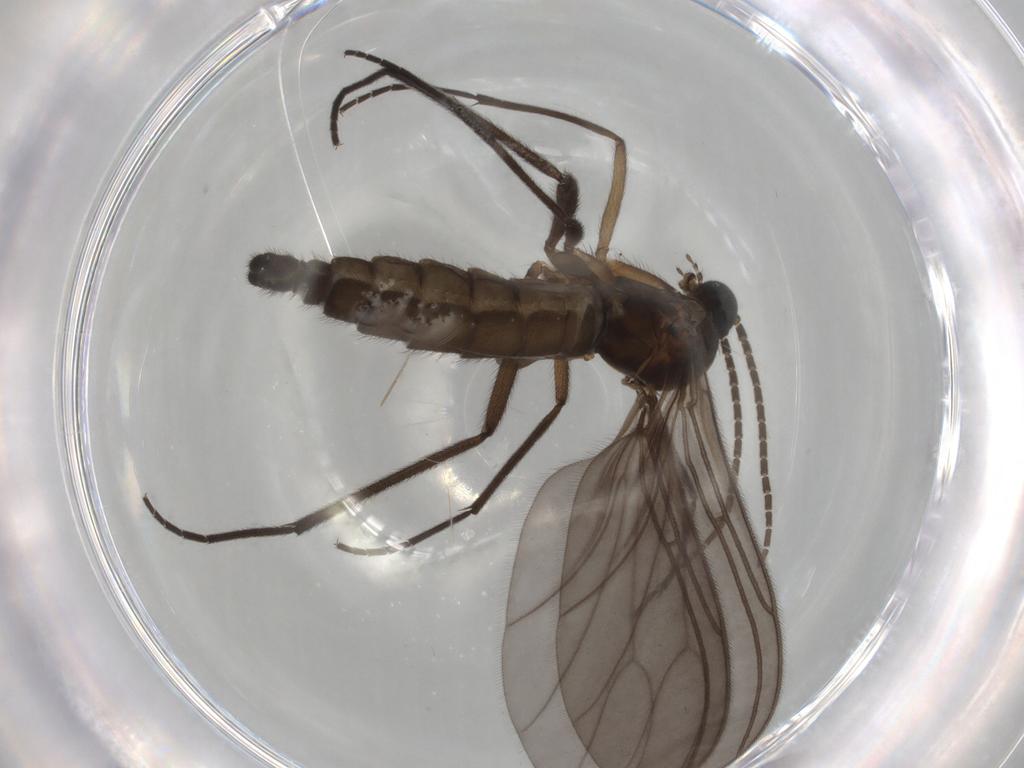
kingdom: Animalia
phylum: Arthropoda
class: Insecta
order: Diptera
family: Sciaridae
